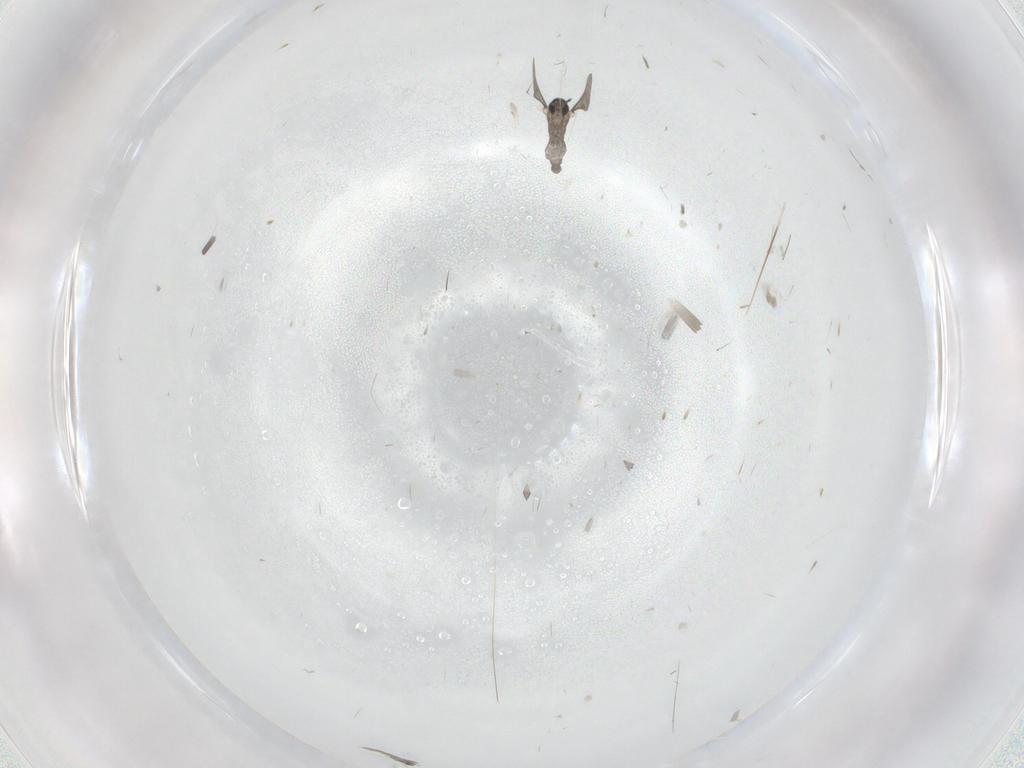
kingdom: Animalia
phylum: Arthropoda
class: Insecta
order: Diptera
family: Cecidomyiidae
